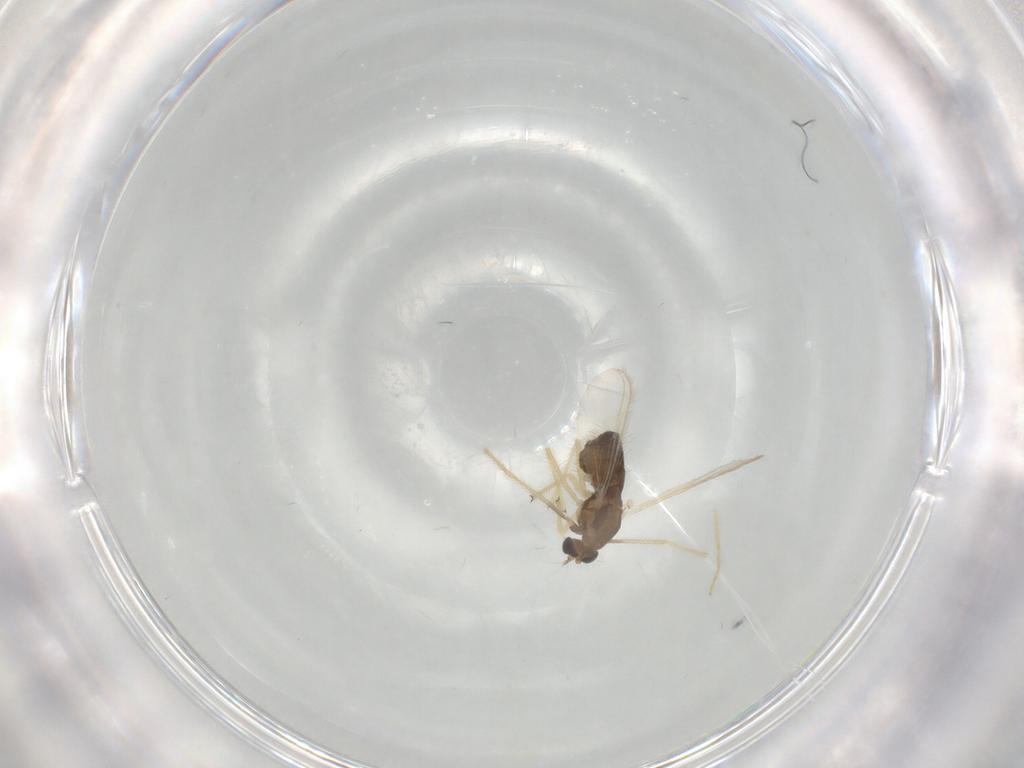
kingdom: Animalia
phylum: Arthropoda
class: Insecta
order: Diptera
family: Chironomidae
